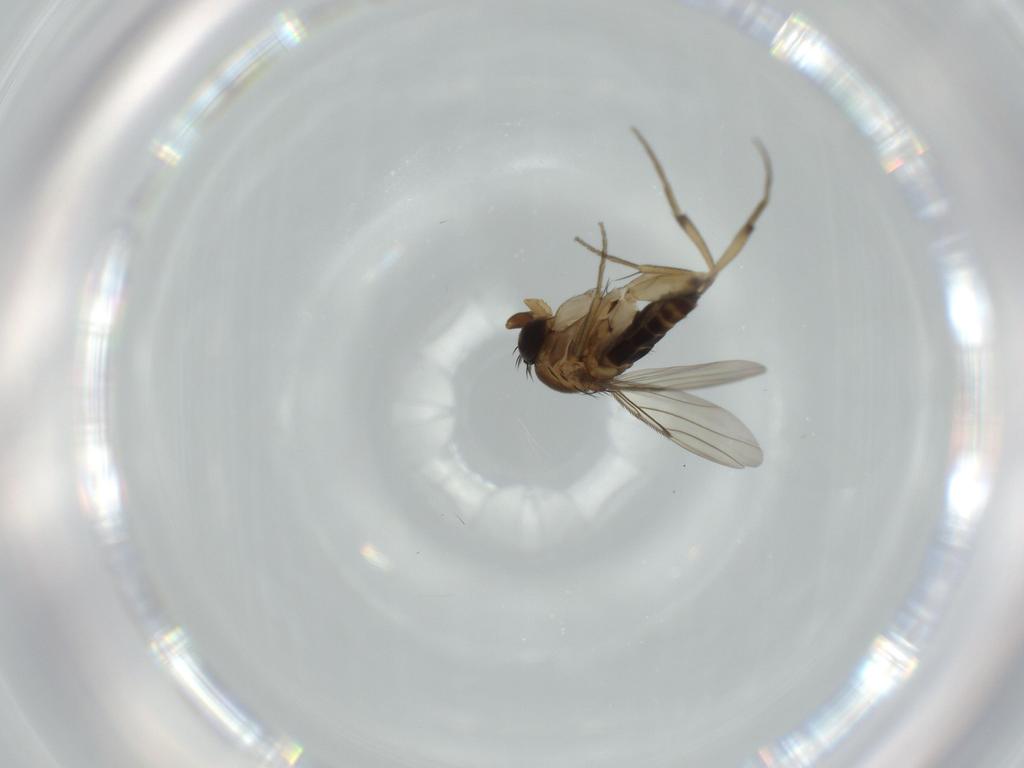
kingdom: Animalia
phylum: Arthropoda
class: Insecta
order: Diptera
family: Phoridae
